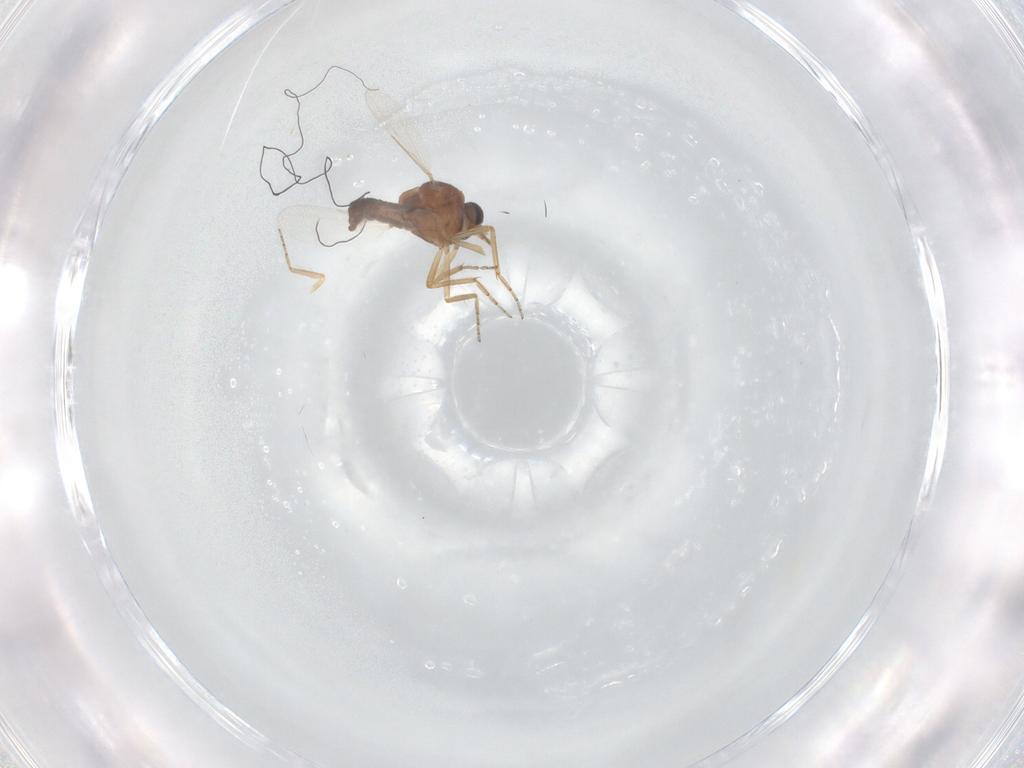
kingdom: Animalia
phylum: Arthropoda
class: Insecta
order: Diptera
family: Ceratopogonidae
